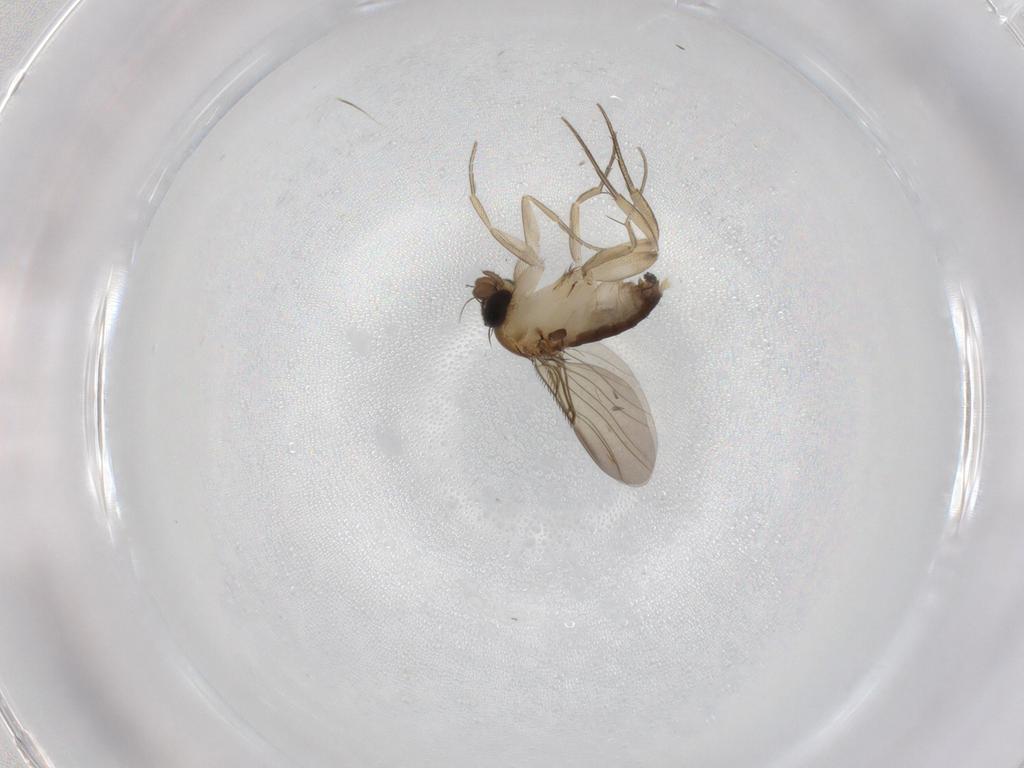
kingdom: Animalia
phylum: Arthropoda
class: Insecta
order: Diptera
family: Phoridae
